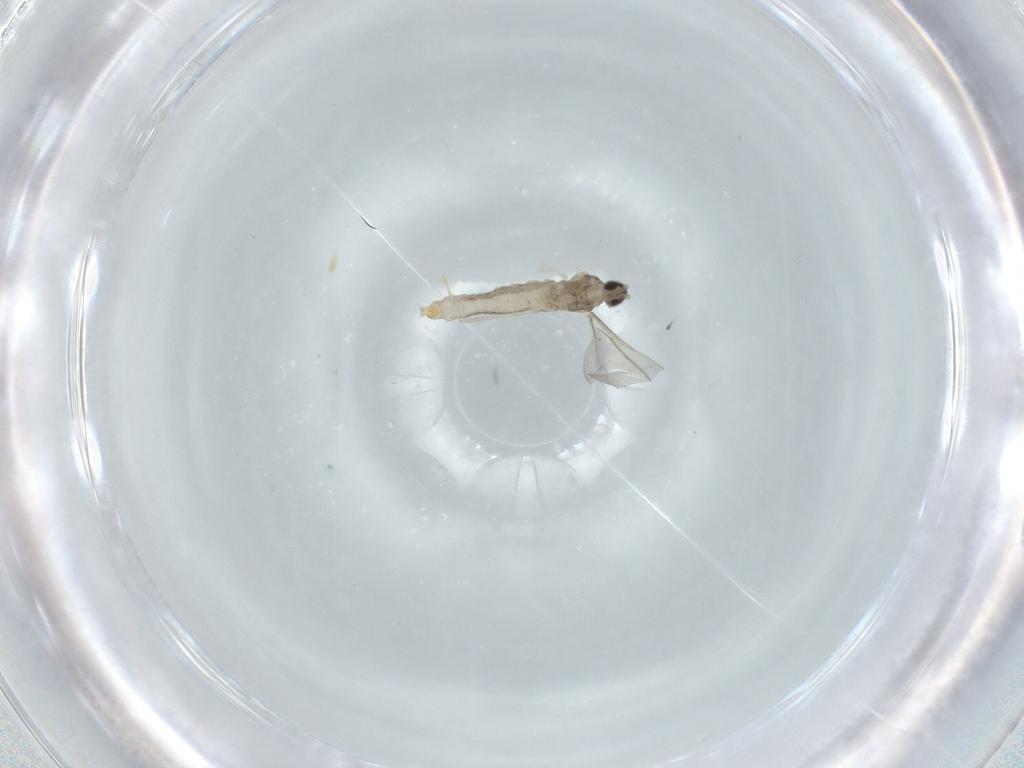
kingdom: Animalia
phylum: Arthropoda
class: Insecta
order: Diptera
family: Cecidomyiidae
